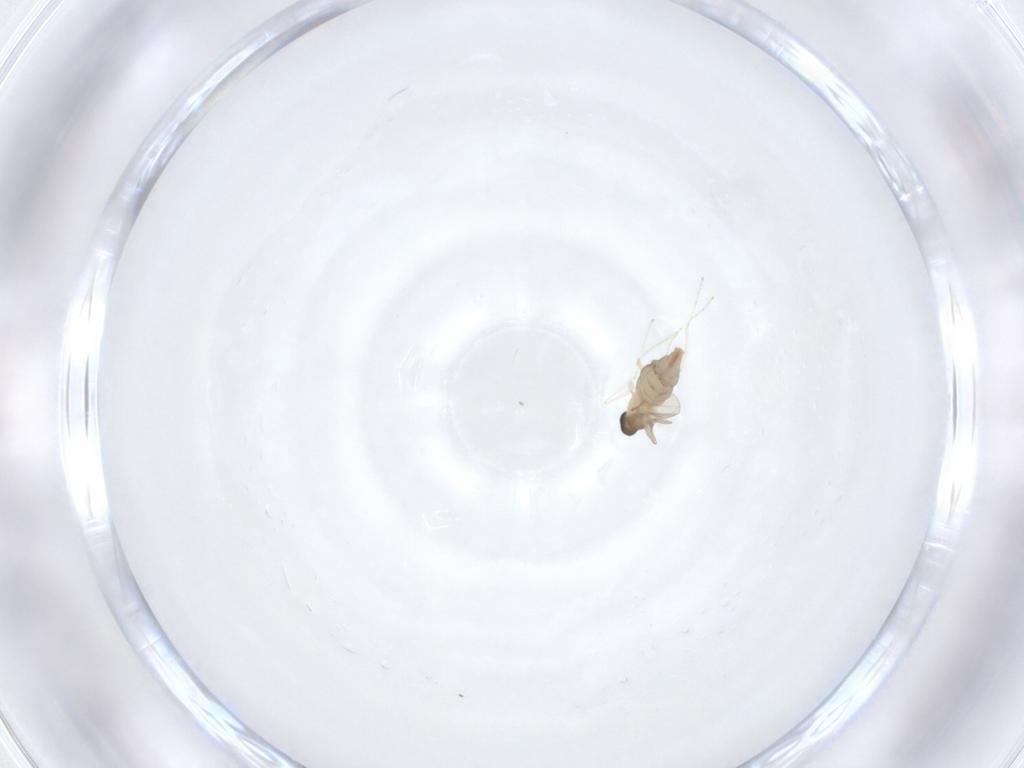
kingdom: Animalia
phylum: Arthropoda
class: Insecta
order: Diptera
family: Cecidomyiidae
